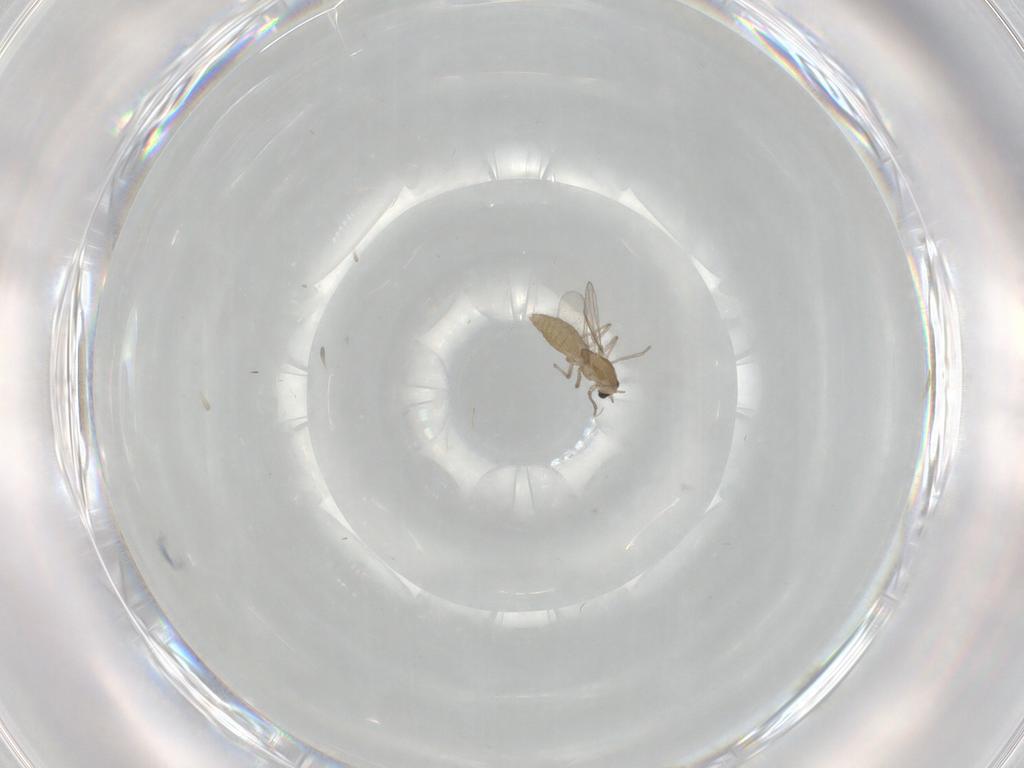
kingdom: Animalia
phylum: Arthropoda
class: Insecta
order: Diptera
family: Chironomidae
